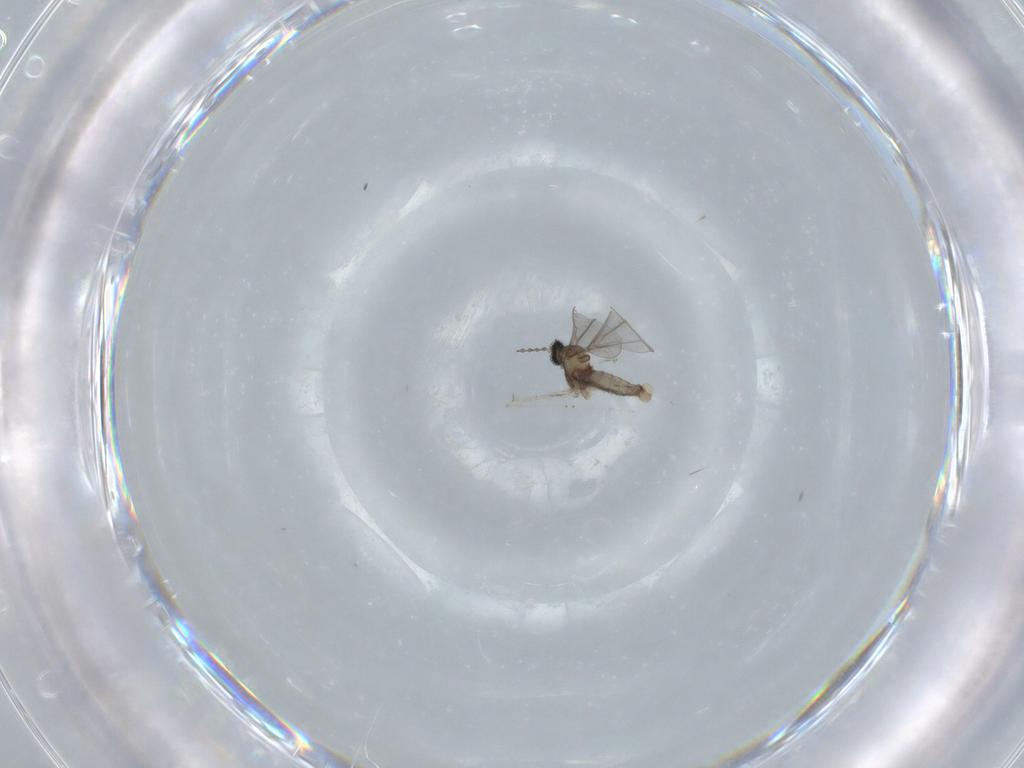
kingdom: Animalia
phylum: Arthropoda
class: Insecta
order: Diptera
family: Cecidomyiidae
